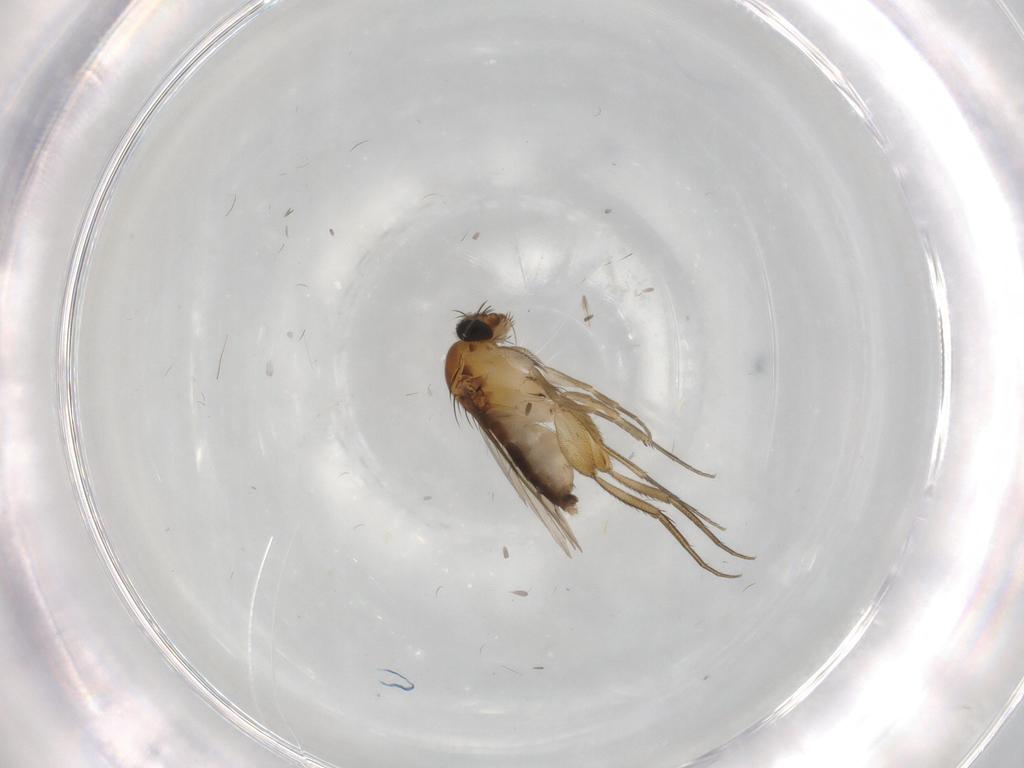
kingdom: Animalia
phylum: Arthropoda
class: Insecta
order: Diptera
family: Phoridae
